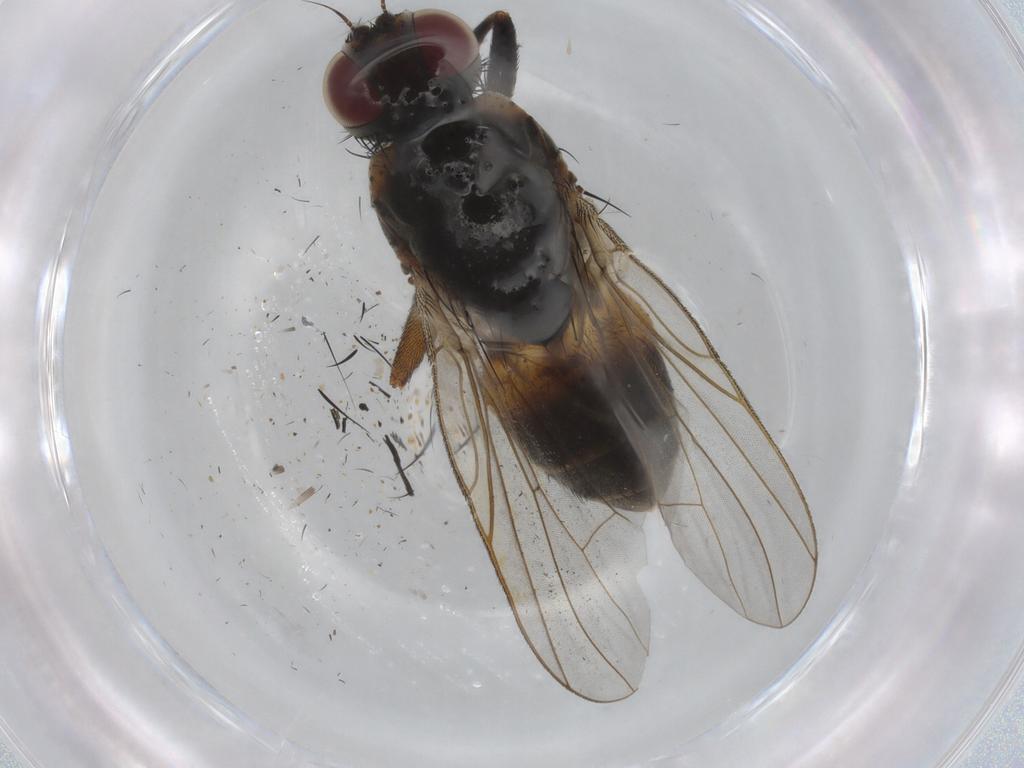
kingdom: Animalia
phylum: Arthropoda
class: Insecta
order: Diptera
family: Muscidae
